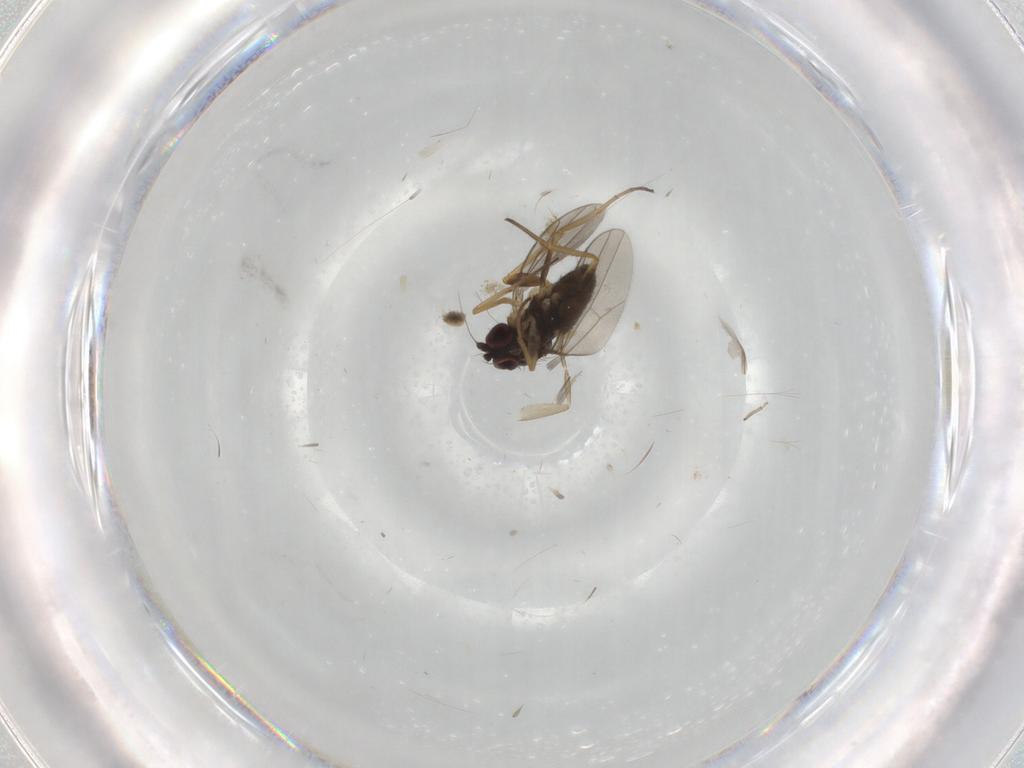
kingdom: Animalia
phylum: Arthropoda
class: Insecta
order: Diptera
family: Dolichopodidae
